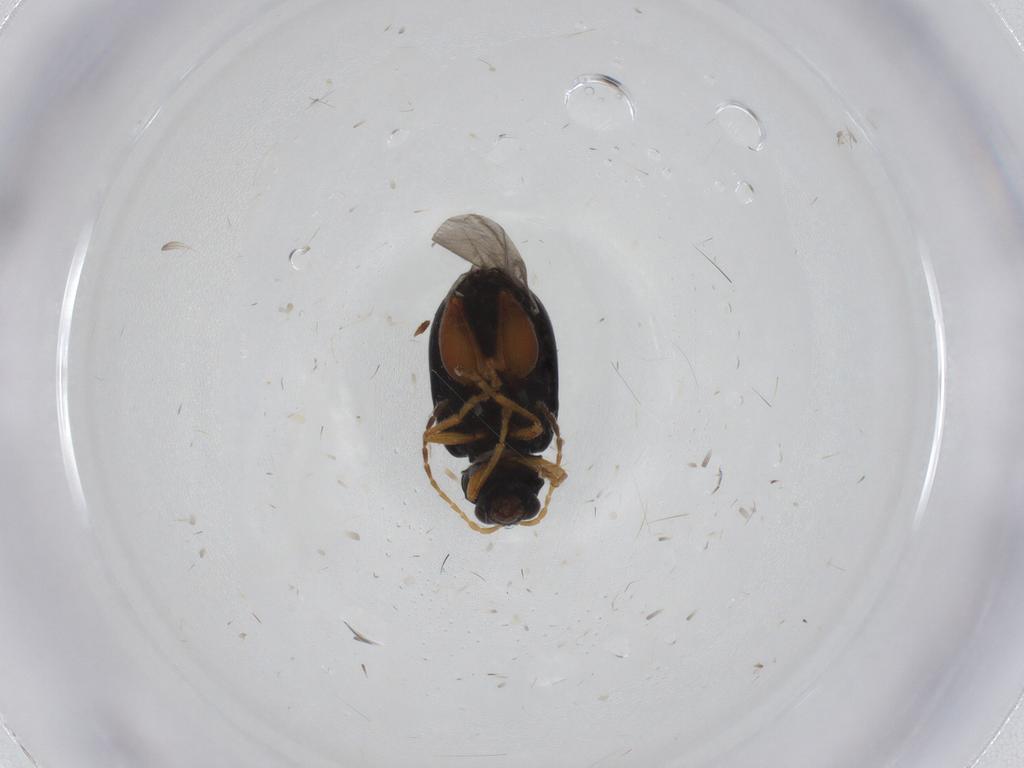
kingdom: Animalia
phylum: Arthropoda
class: Insecta
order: Coleoptera
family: Chrysomelidae
